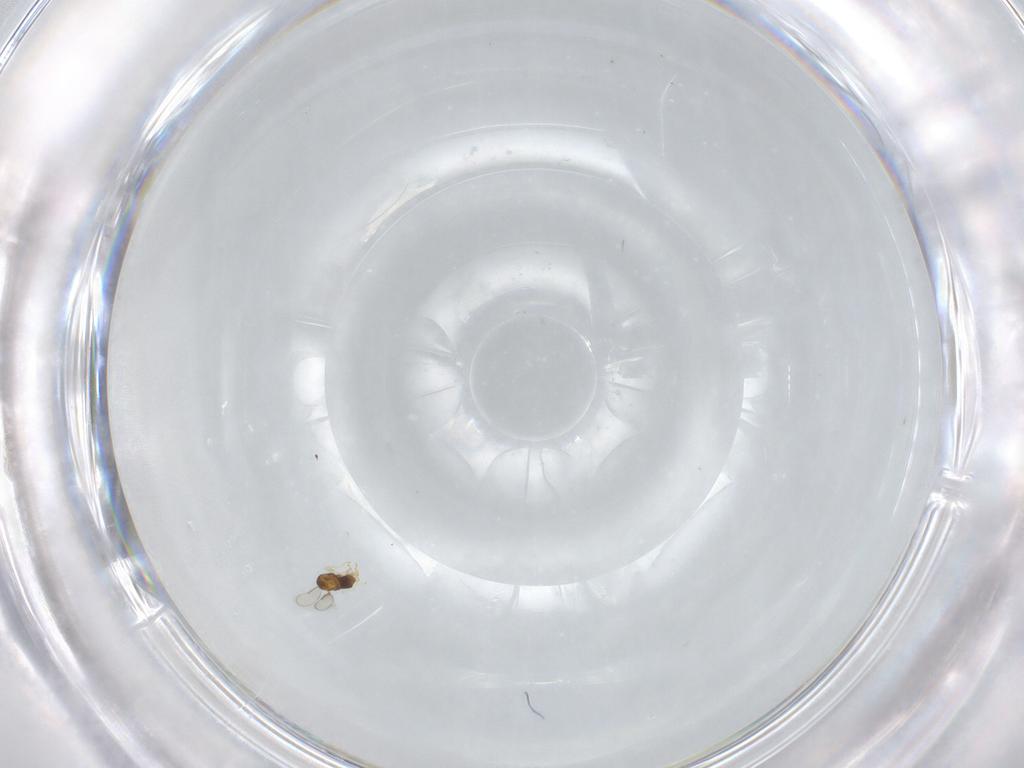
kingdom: Animalia
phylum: Arthropoda
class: Insecta
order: Hymenoptera
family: Aphelinidae
